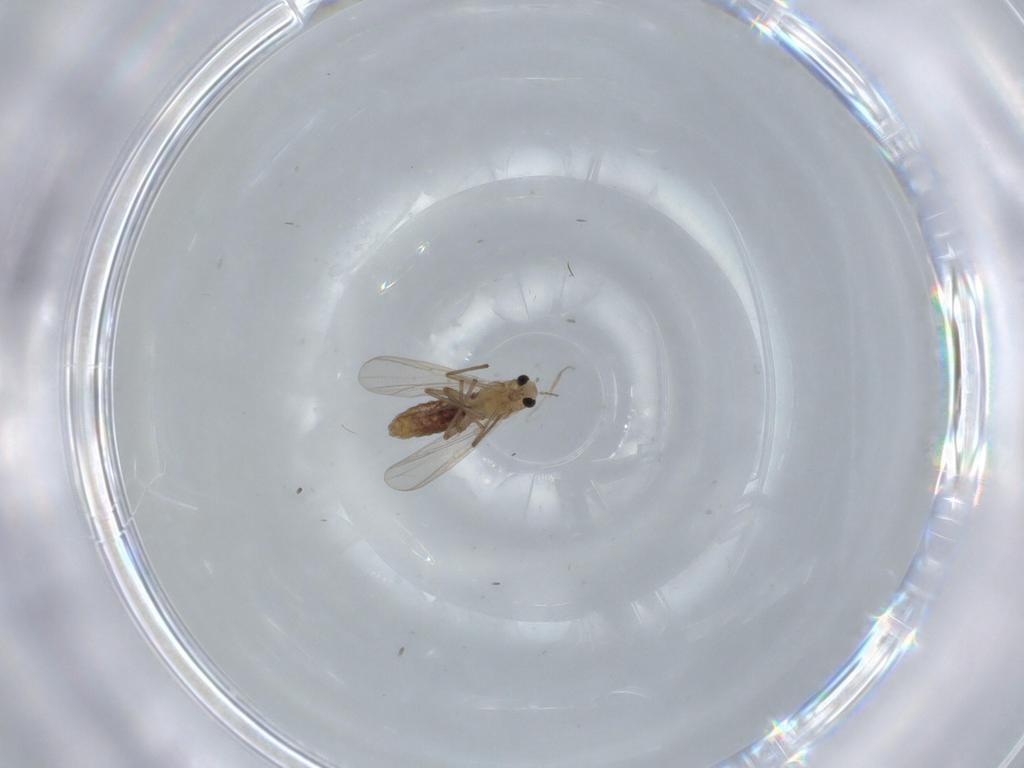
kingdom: Animalia
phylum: Arthropoda
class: Insecta
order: Diptera
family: Chironomidae
